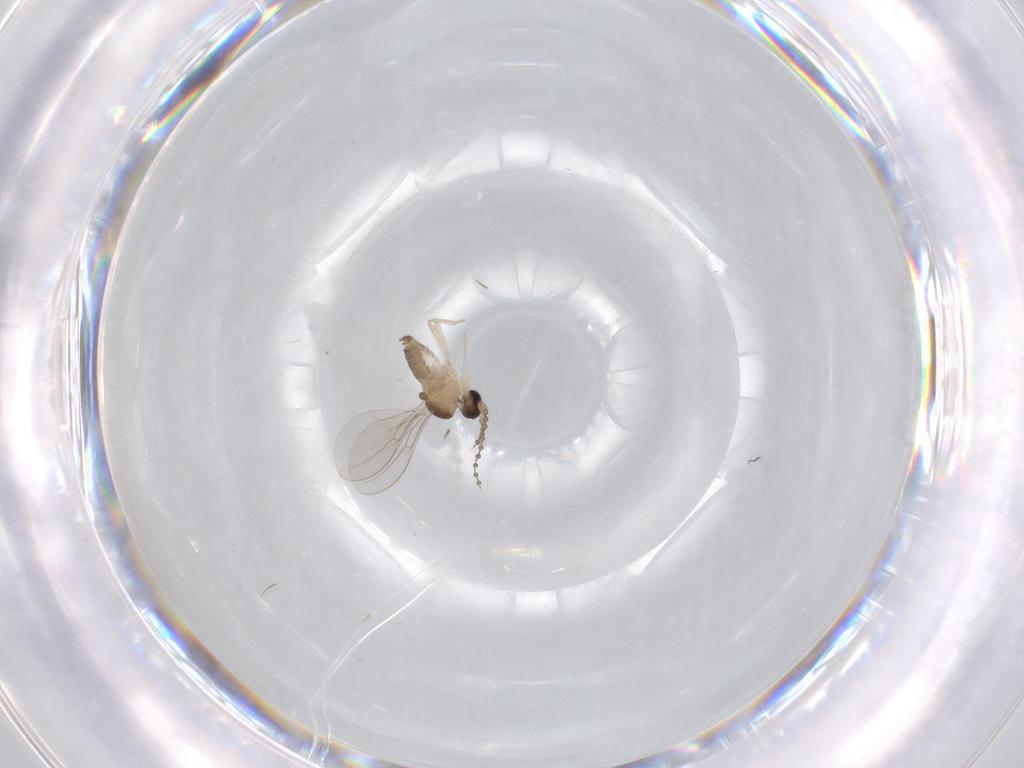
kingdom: Animalia
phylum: Arthropoda
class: Insecta
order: Diptera
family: Cecidomyiidae
